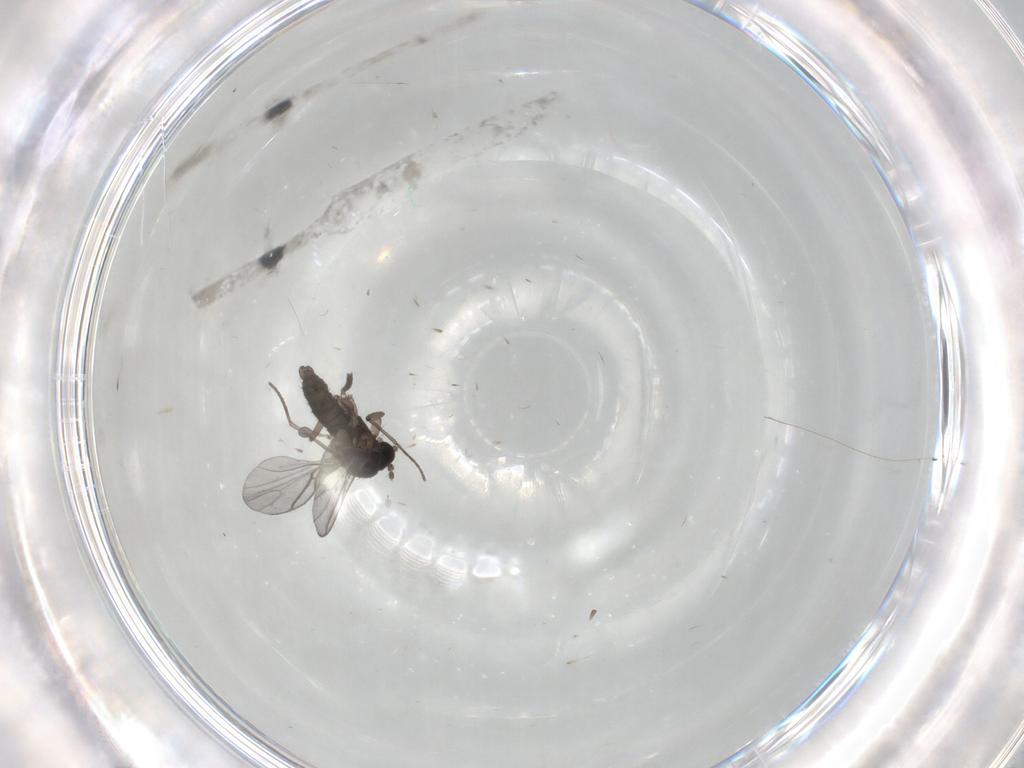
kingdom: Animalia
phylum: Arthropoda
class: Insecta
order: Diptera
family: Sciaridae
